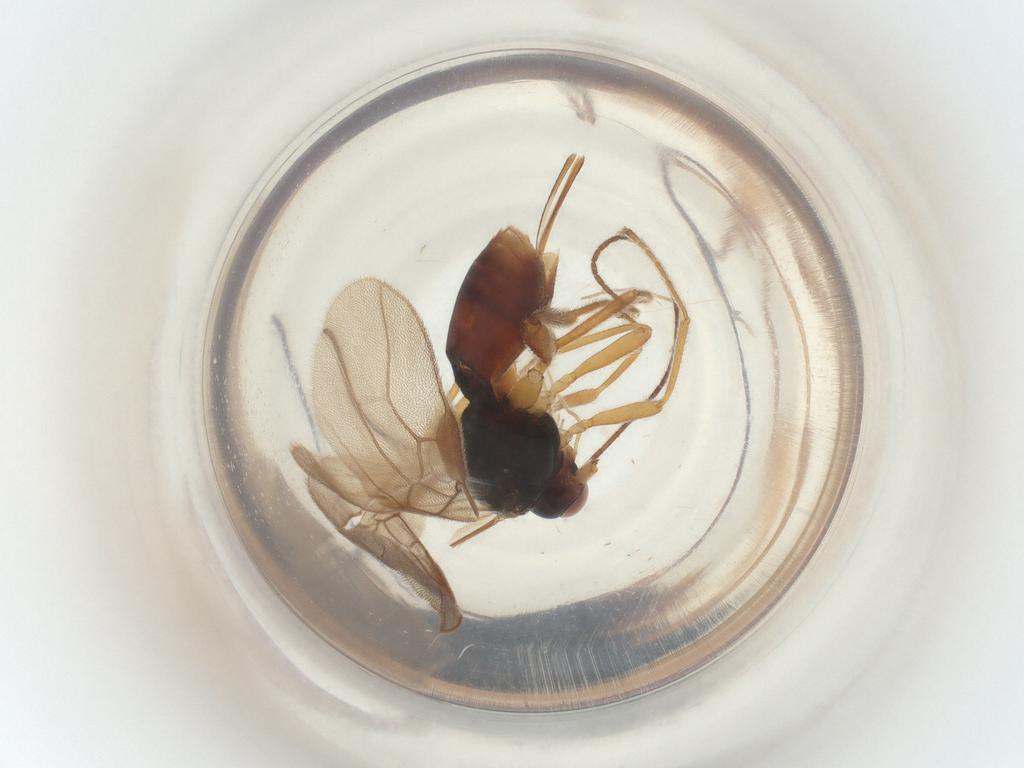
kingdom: Animalia
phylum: Arthropoda
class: Insecta
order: Hymenoptera
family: Braconidae
